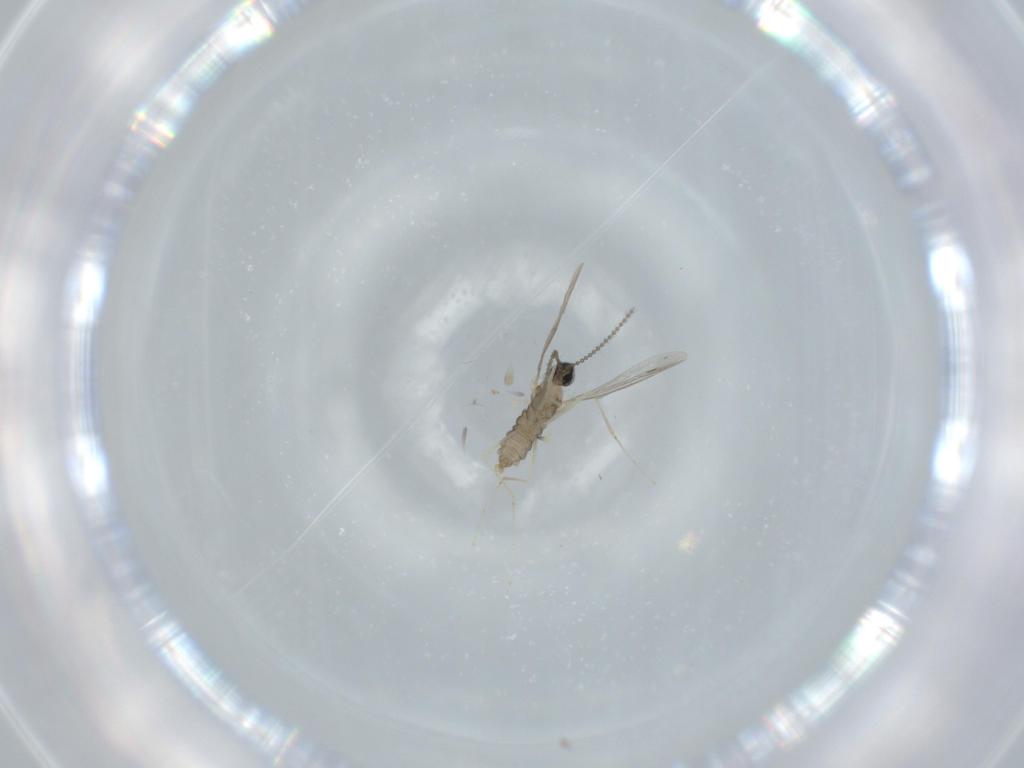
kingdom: Animalia
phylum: Arthropoda
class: Insecta
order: Diptera
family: Cecidomyiidae
